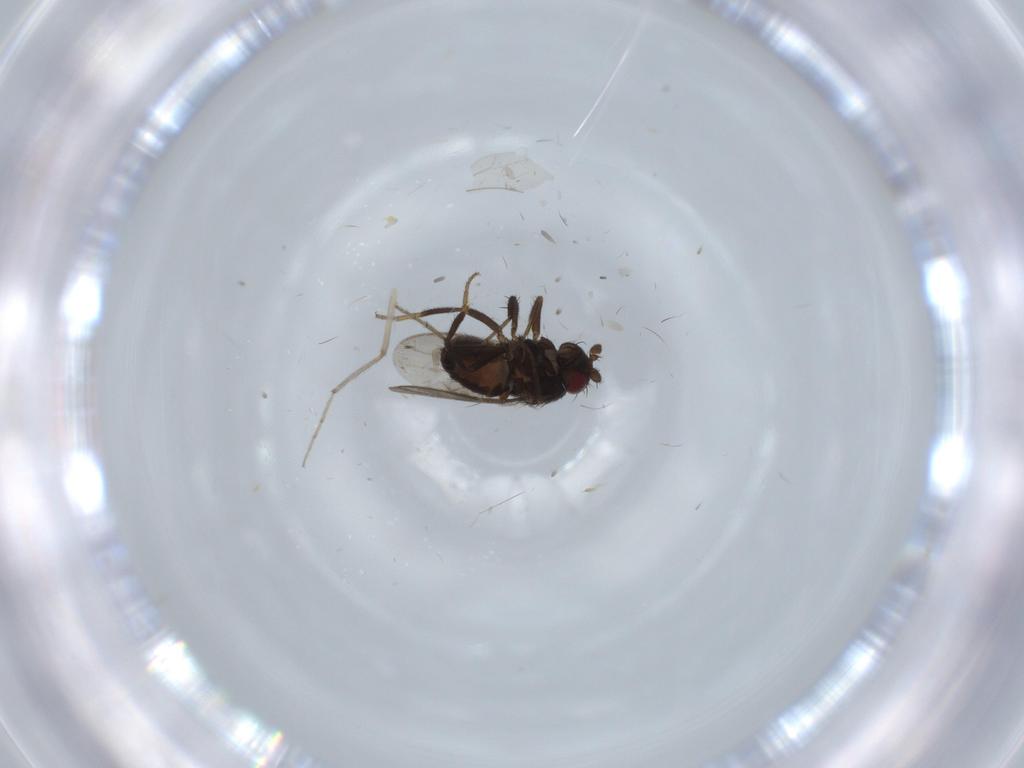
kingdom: Animalia
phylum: Arthropoda
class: Insecta
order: Diptera
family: Sphaeroceridae
